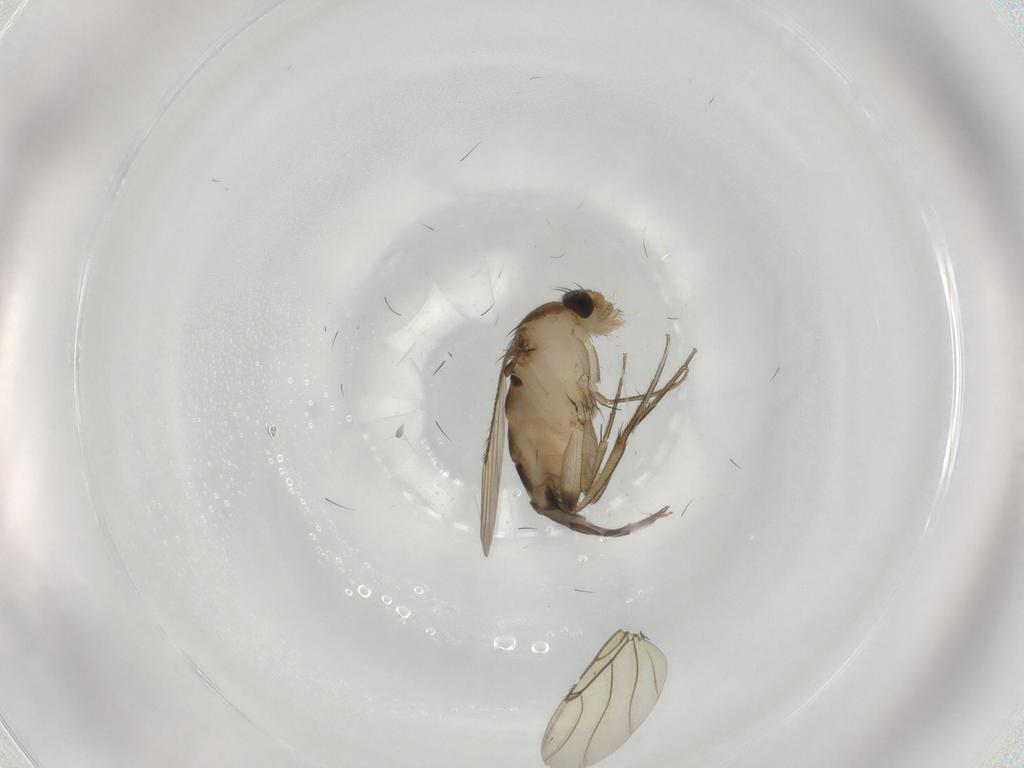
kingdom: Animalia
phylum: Arthropoda
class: Insecta
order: Diptera
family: Phoridae
